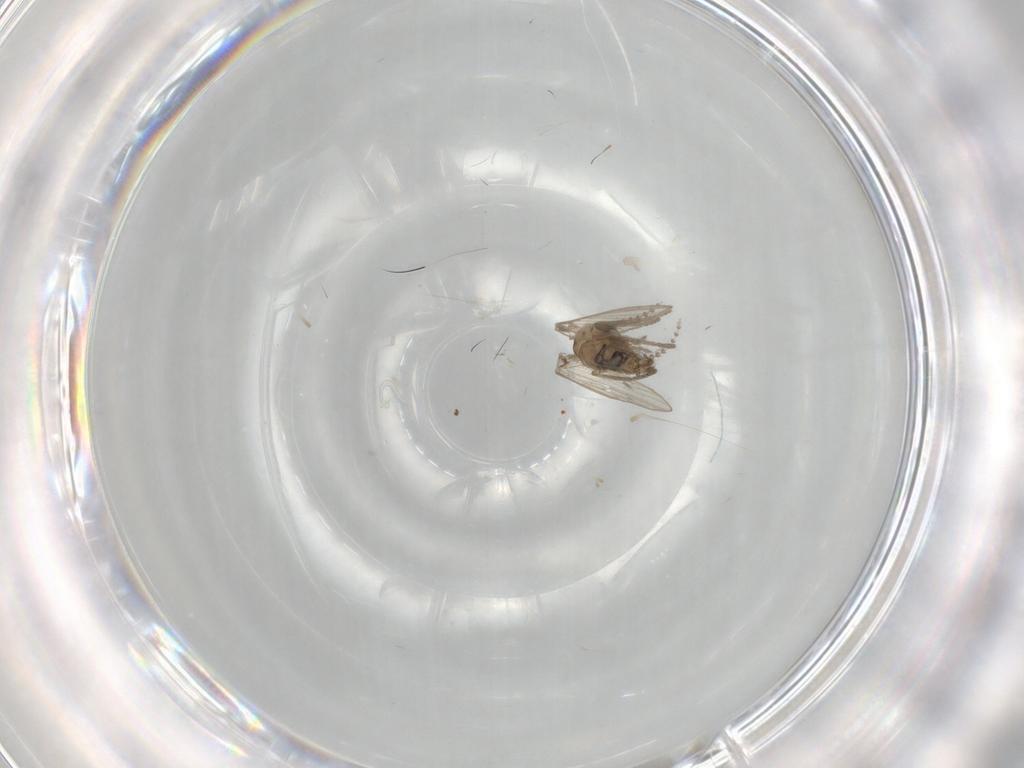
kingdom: Animalia
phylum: Arthropoda
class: Insecta
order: Diptera
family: Psychodidae
